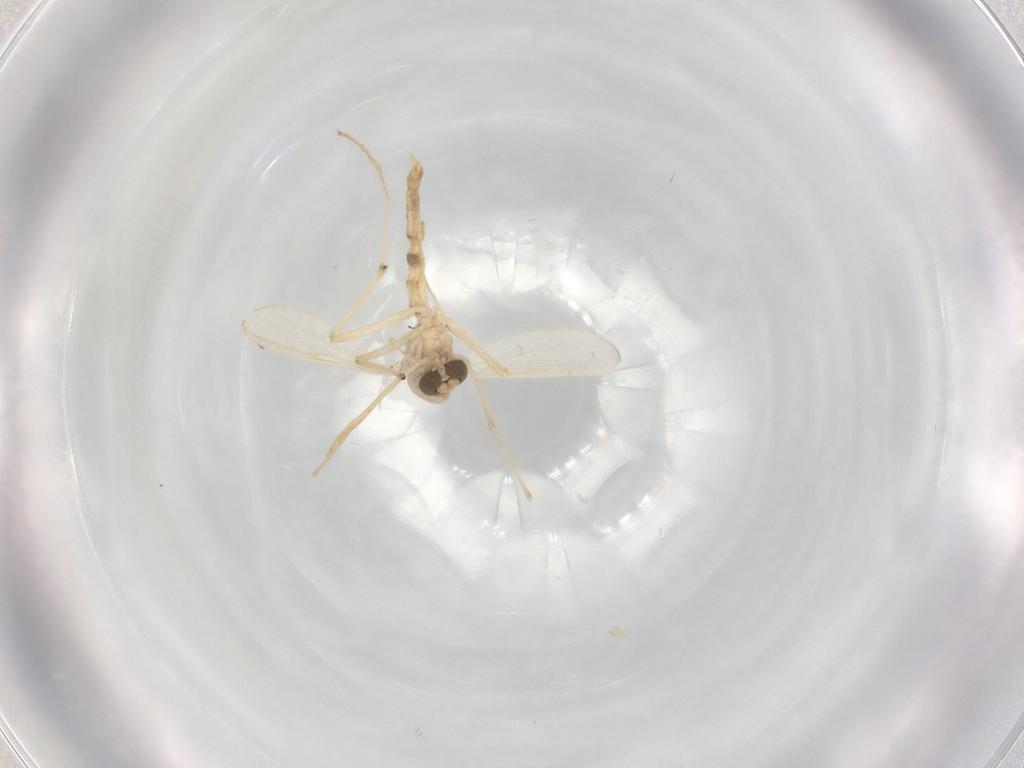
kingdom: Animalia
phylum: Arthropoda
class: Insecta
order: Diptera
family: Chironomidae
